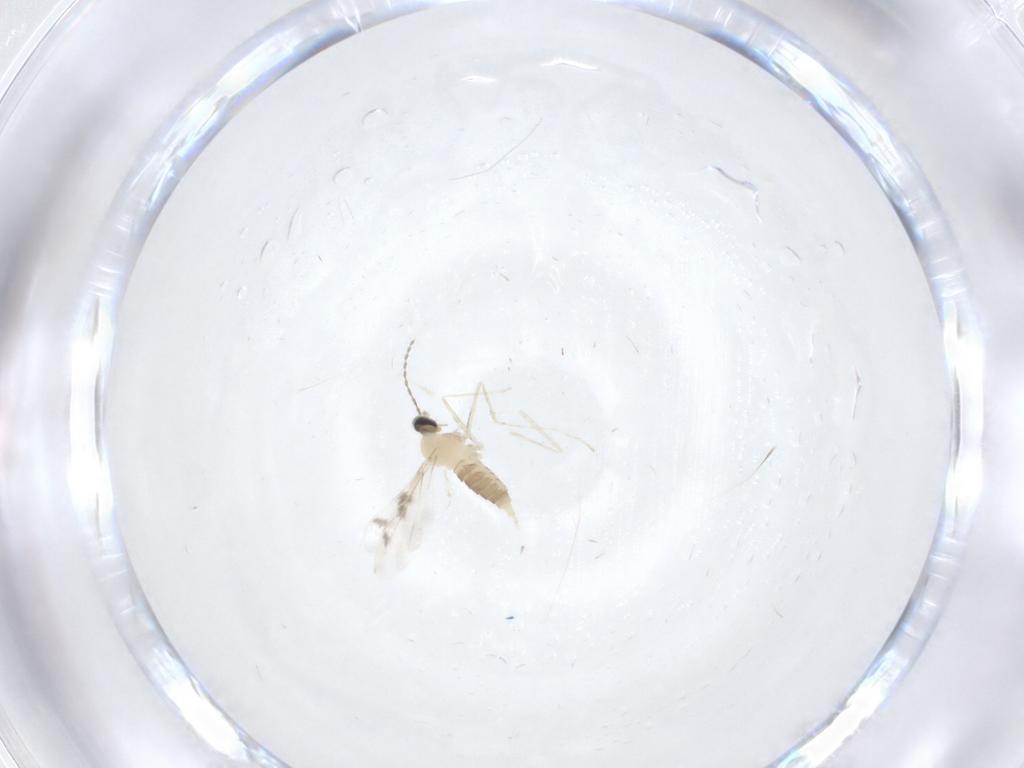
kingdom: Animalia
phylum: Arthropoda
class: Insecta
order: Diptera
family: Cecidomyiidae
